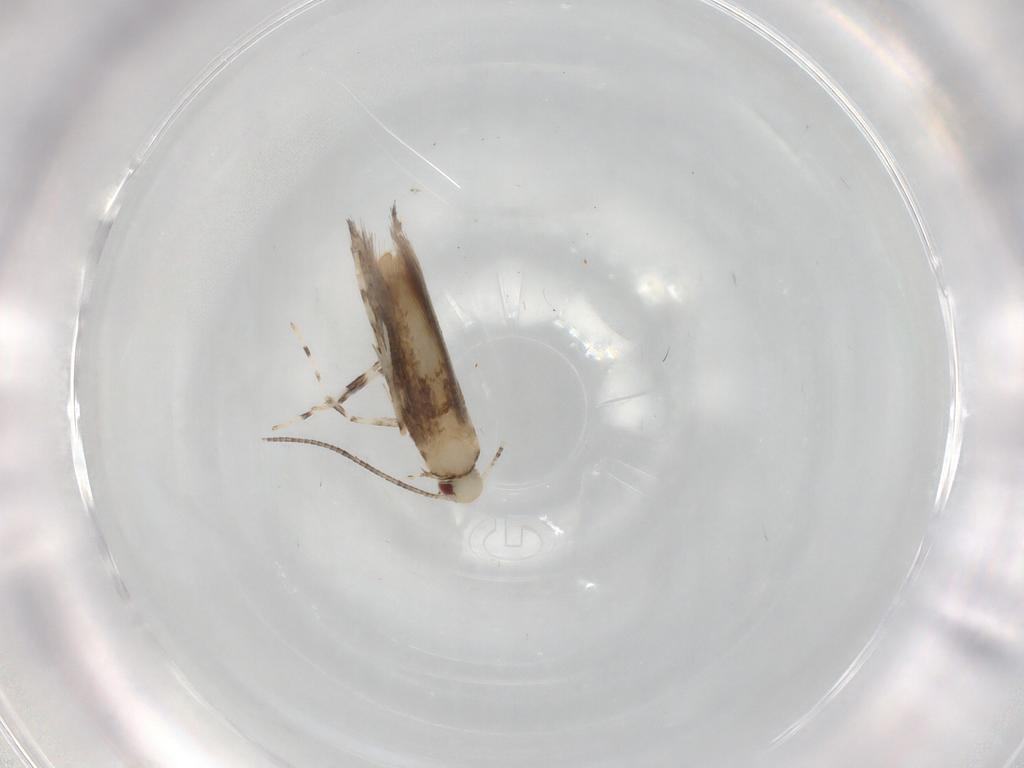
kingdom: Animalia
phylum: Arthropoda
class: Insecta
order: Lepidoptera
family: Gracillariidae
